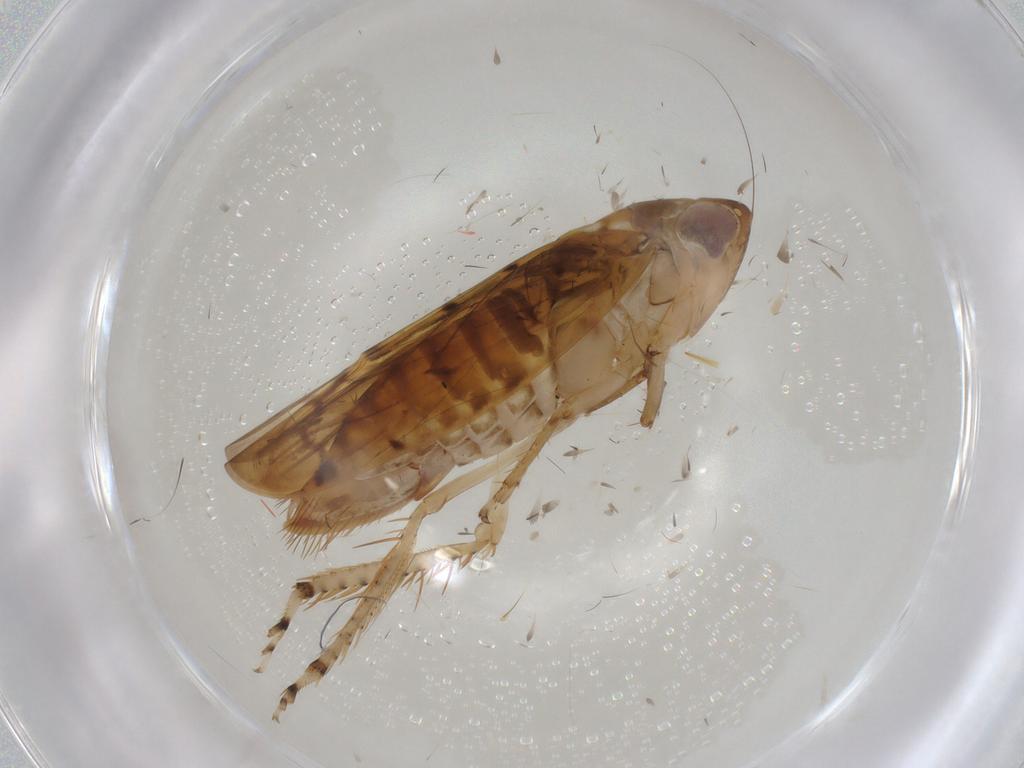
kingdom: Animalia
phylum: Arthropoda
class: Insecta
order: Hemiptera
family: Cicadellidae
